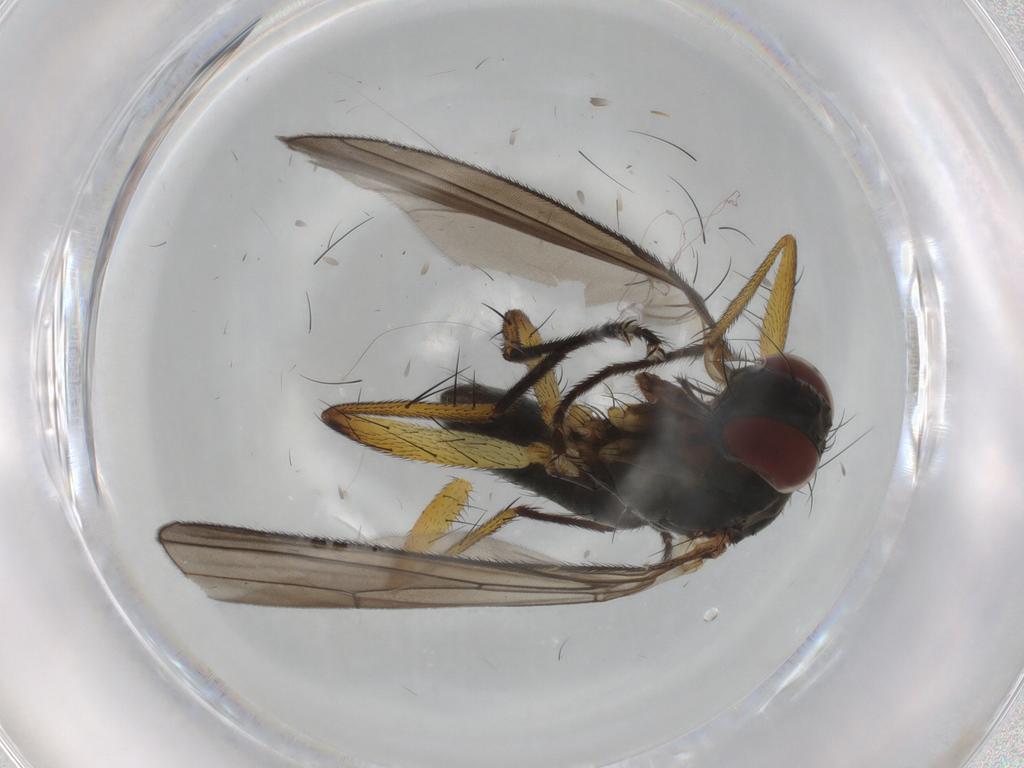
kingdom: Animalia
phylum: Arthropoda
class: Insecta
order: Diptera
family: Muscidae
